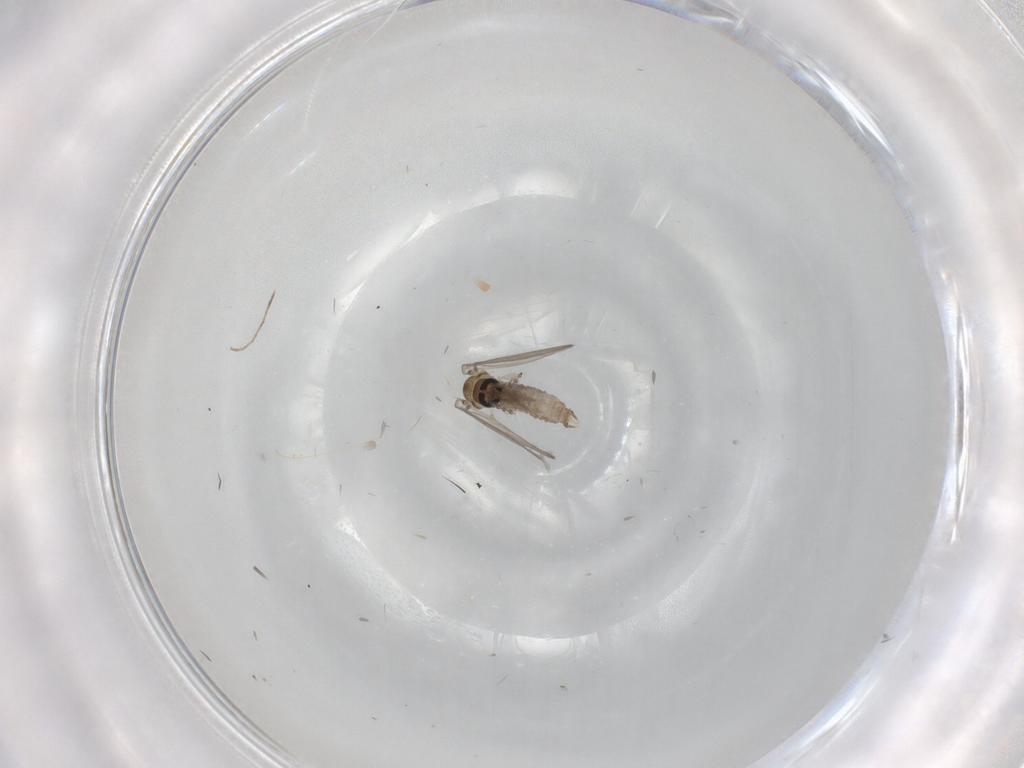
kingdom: Animalia
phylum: Arthropoda
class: Insecta
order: Diptera
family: Psychodidae
